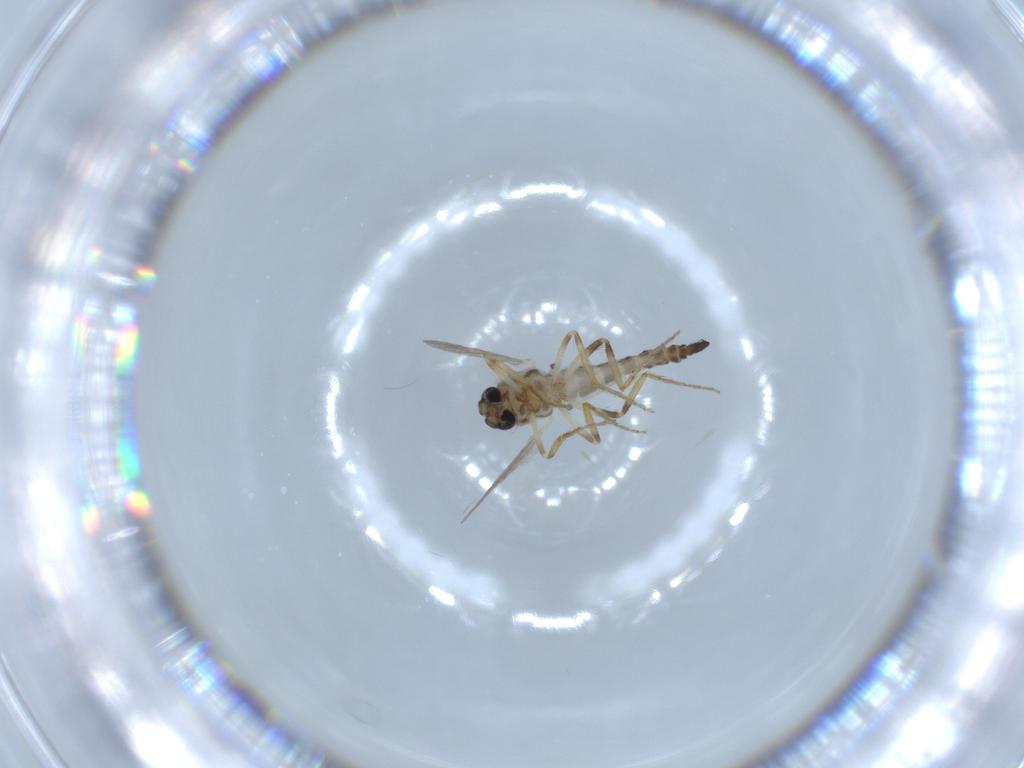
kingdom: Animalia
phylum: Arthropoda
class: Insecta
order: Diptera
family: Ceratopogonidae
